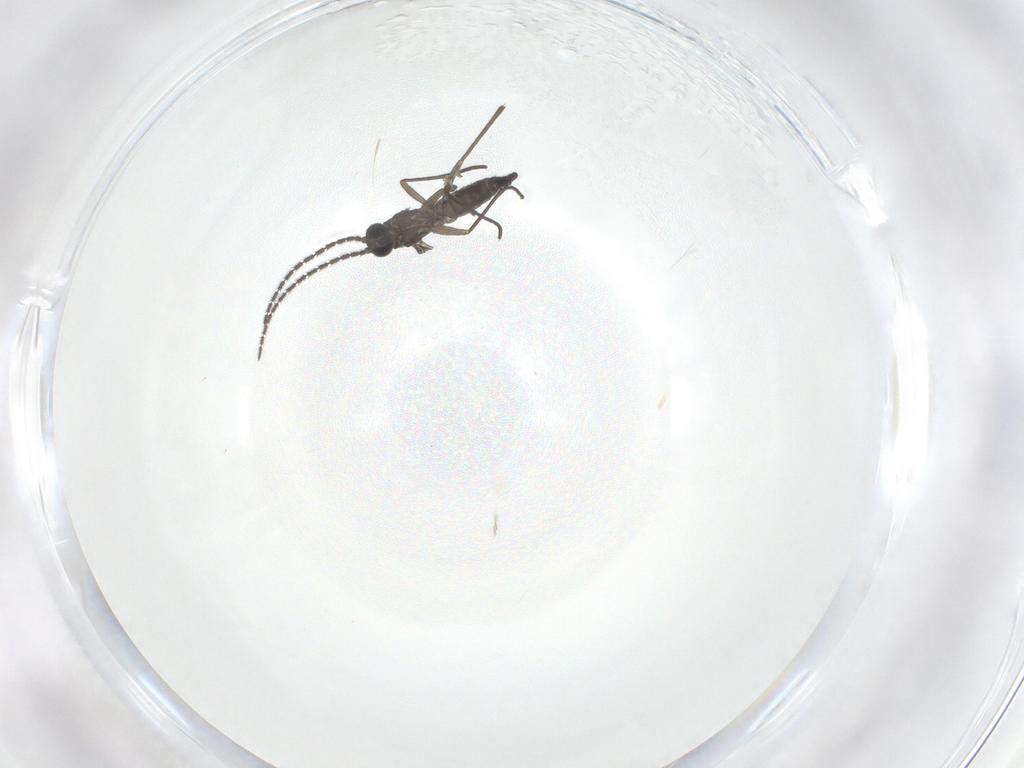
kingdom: Animalia
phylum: Arthropoda
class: Insecta
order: Diptera
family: Sciaridae
